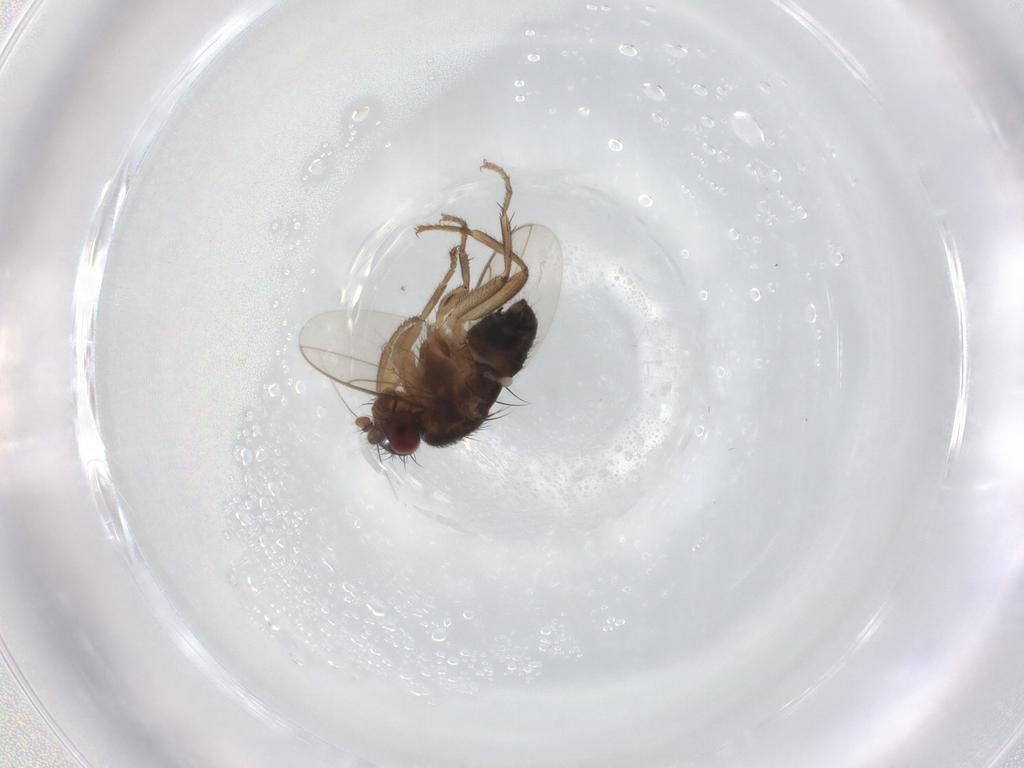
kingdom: Animalia
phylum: Arthropoda
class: Insecta
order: Diptera
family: Sphaeroceridae
